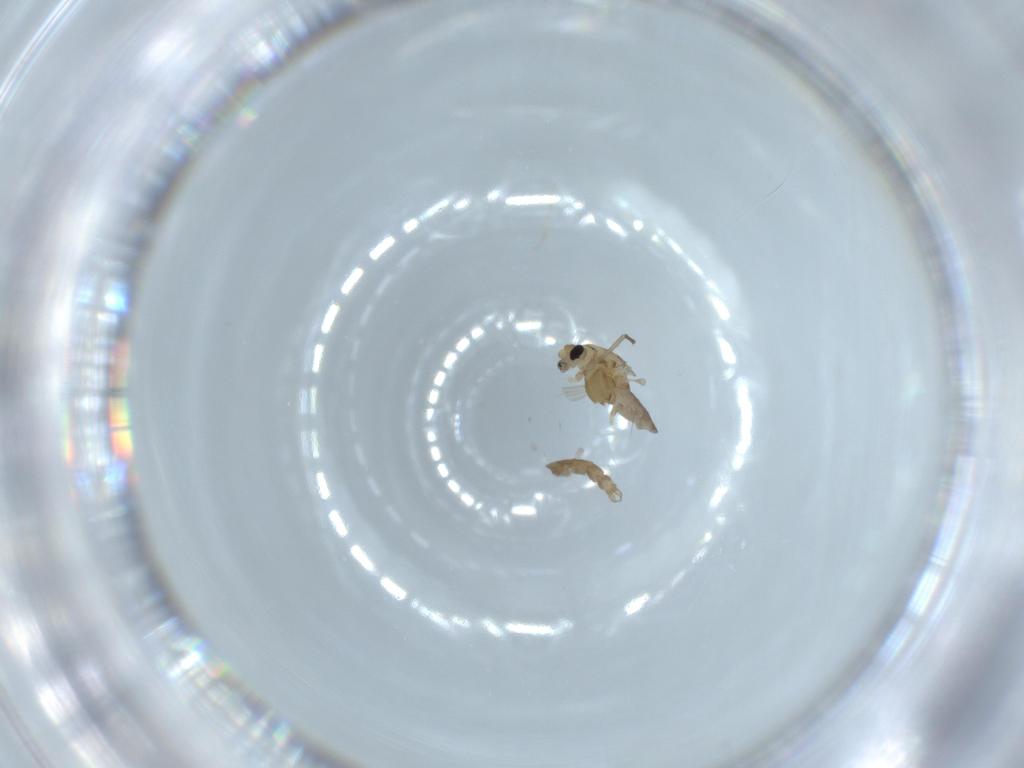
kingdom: Animalia
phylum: Arthropoda
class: Insecta
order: Diptera
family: Chironomidae
